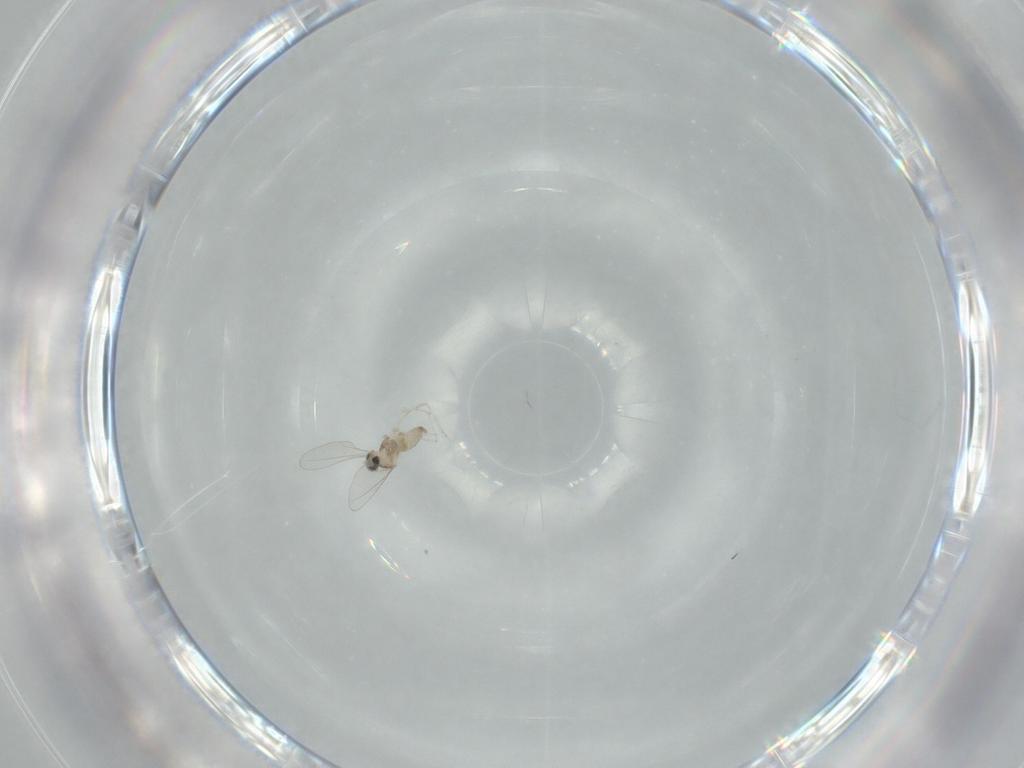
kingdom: Animalia
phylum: Arthropoda
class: Insecta
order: Diptera
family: Cecidomyiidae
